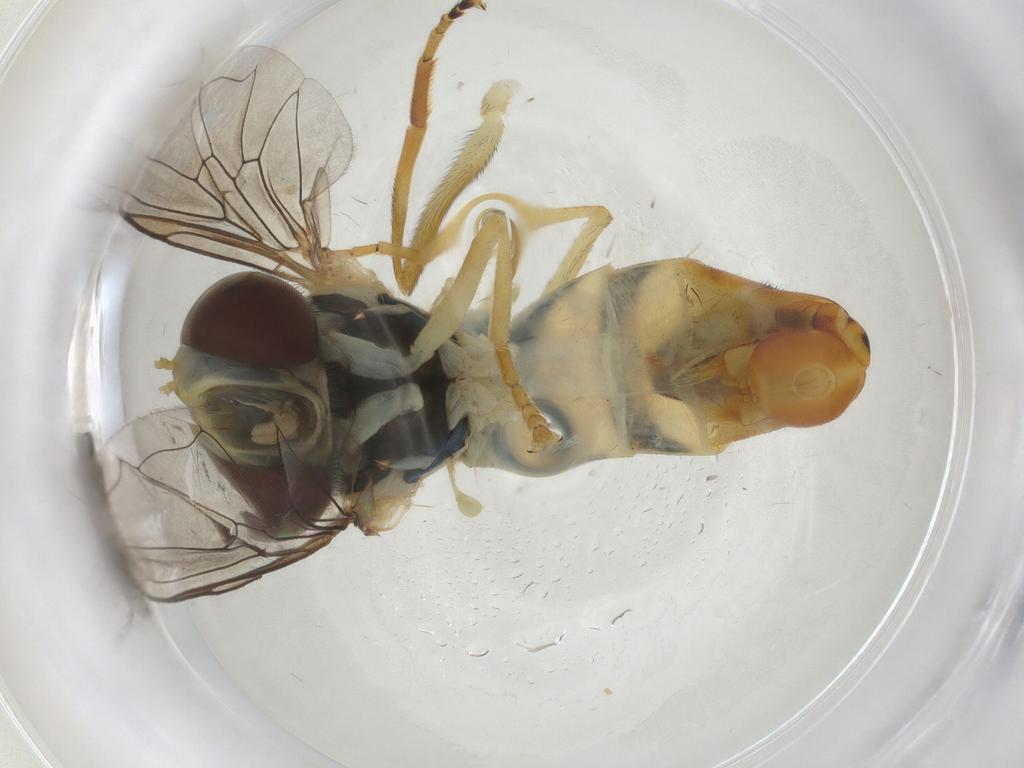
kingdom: Animalia
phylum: Arthropoda
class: Insecta
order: Diptera
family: Syrphidae
